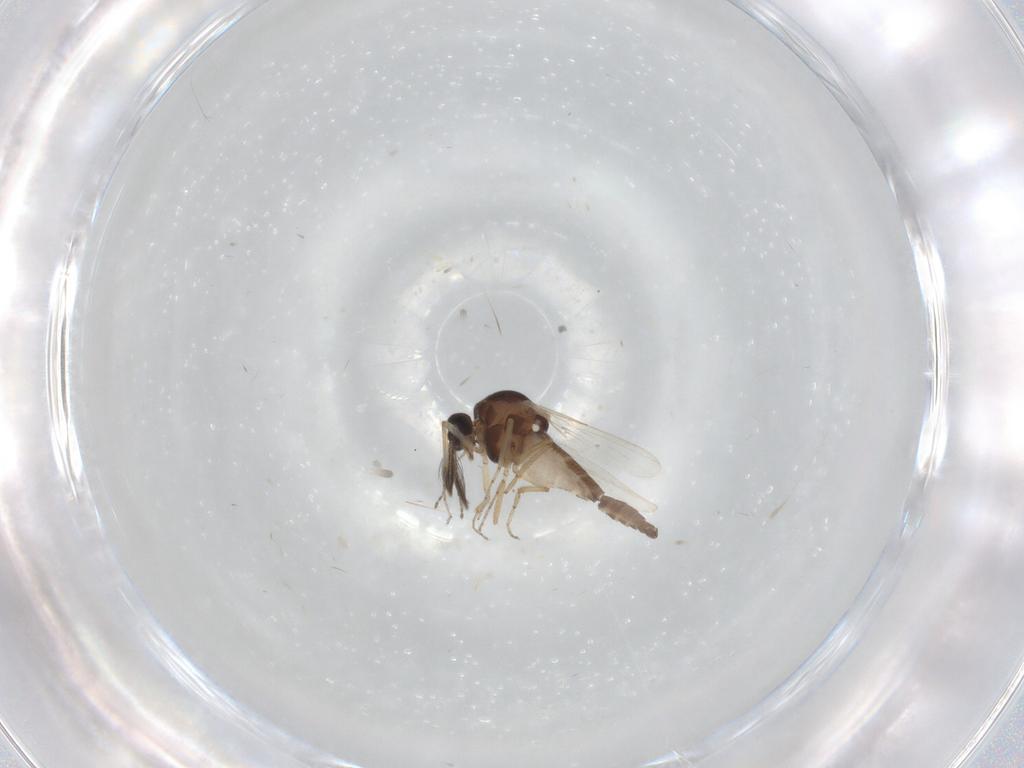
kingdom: Animalia
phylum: Arthropoda
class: Insecta
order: Diptera
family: Ceratopogonidae
